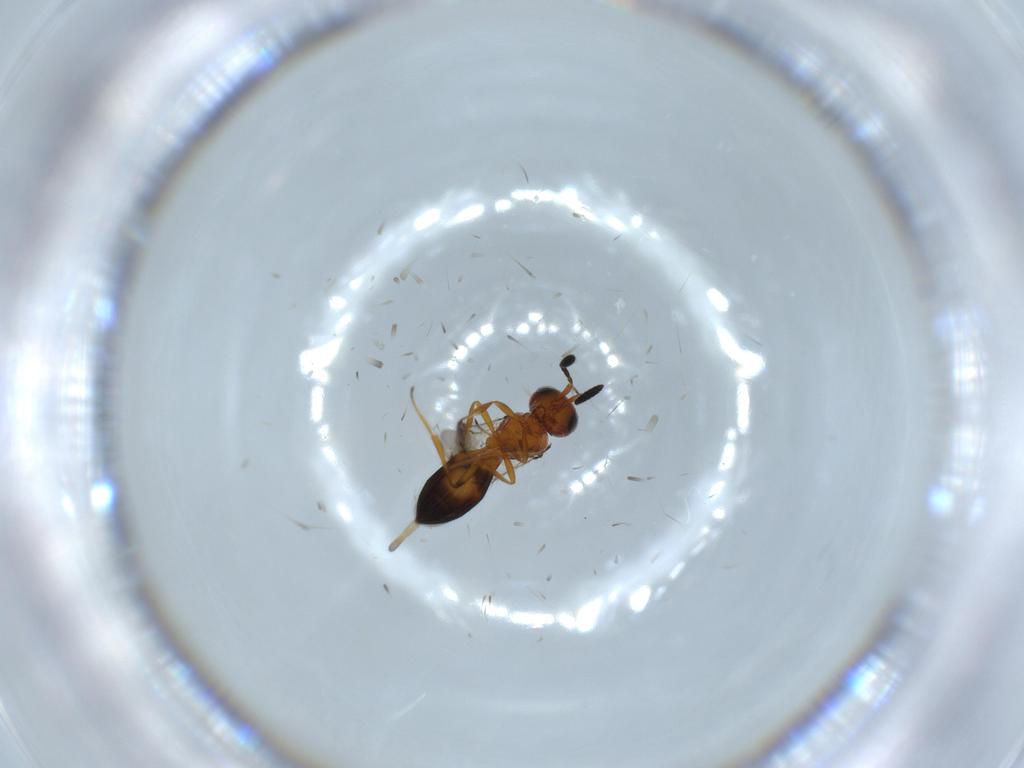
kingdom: Animalia
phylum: Arthropoda
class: Insecta
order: Hymenoptera
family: Scelionidae
